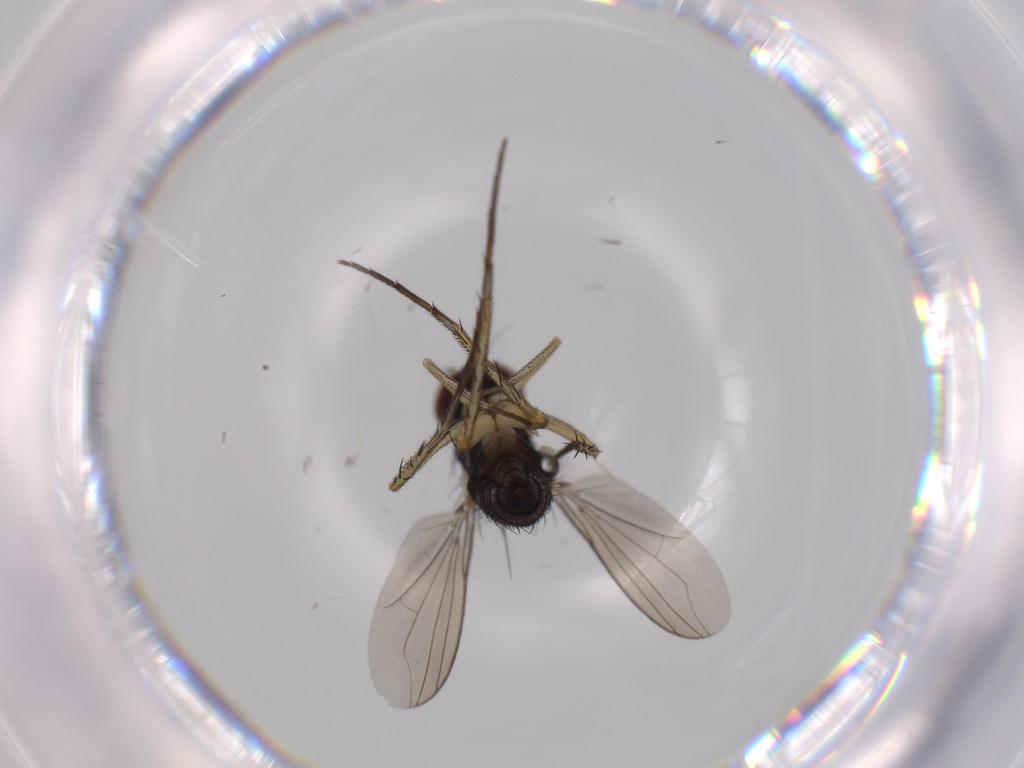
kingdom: Animalia
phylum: Arthropoda
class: Insecta
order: Diptera
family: Dolichopodidae
